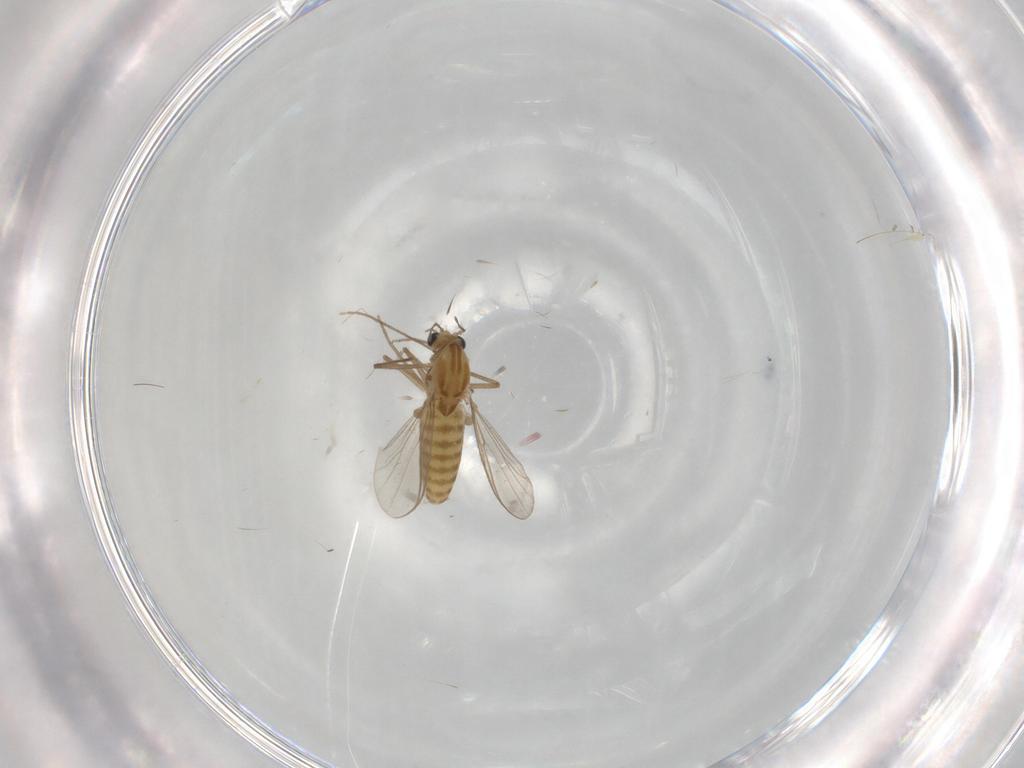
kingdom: Animalia
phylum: Arthropoda
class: Insecta
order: Diptera
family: Chironomidae
